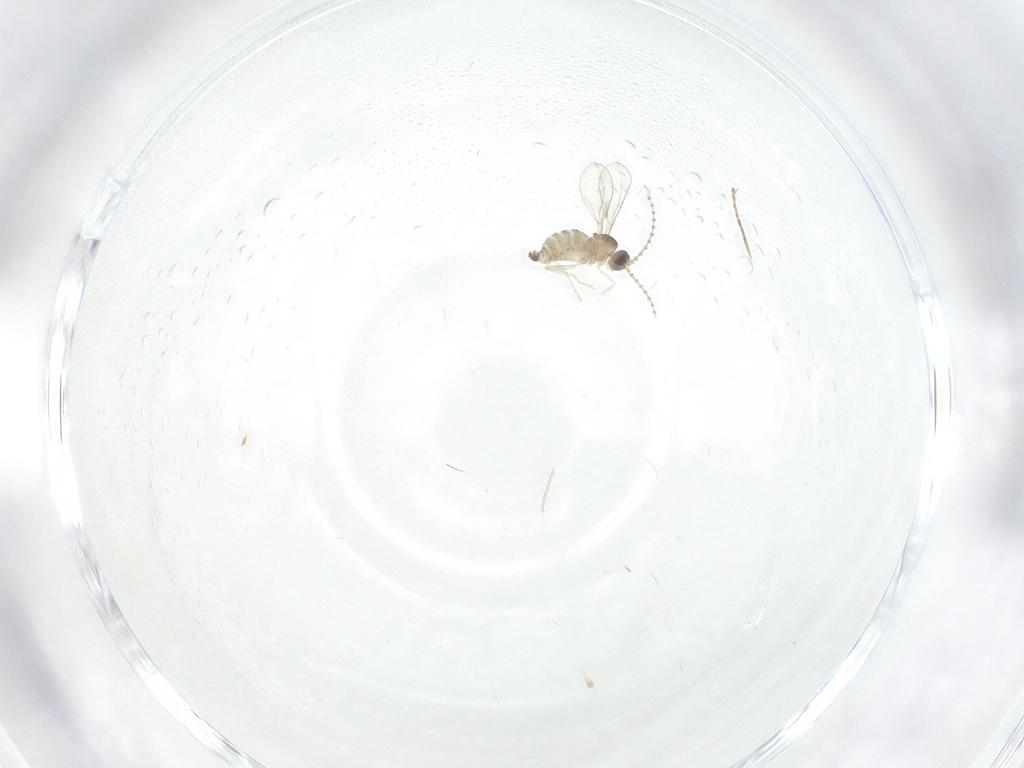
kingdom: Animalia
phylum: Arthropoda
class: Insecta
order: Diptera
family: Cecidomyiidae
